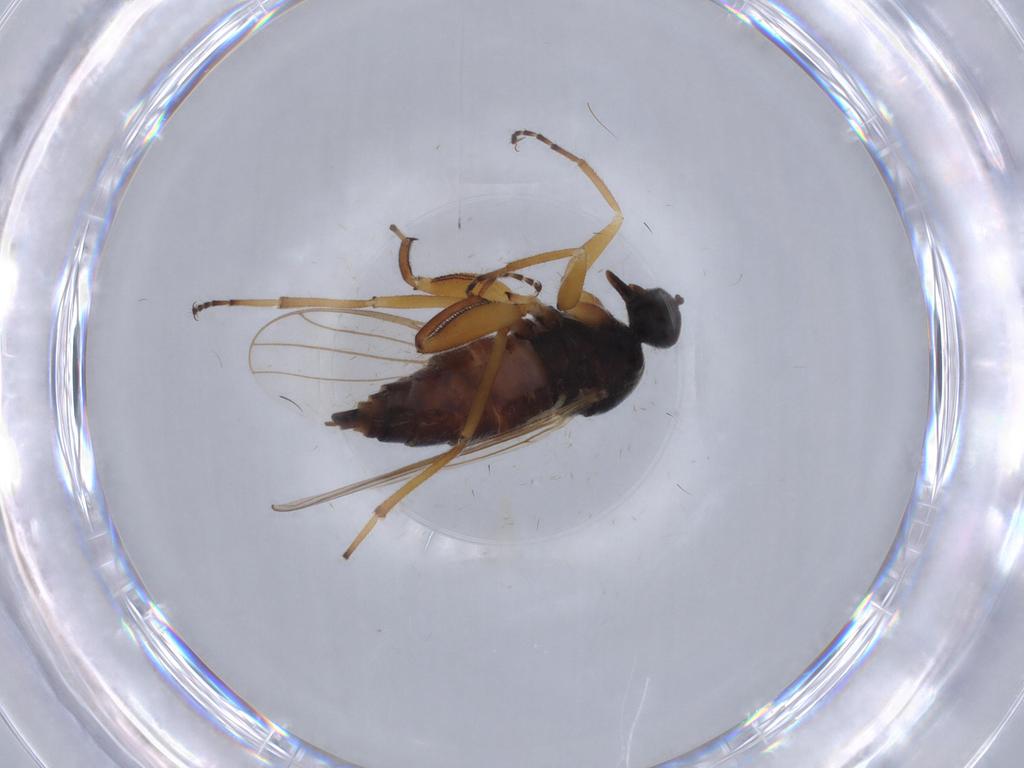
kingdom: Animalia
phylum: Arthropoda
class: Insecta
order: Diptera
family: Hybotidae
